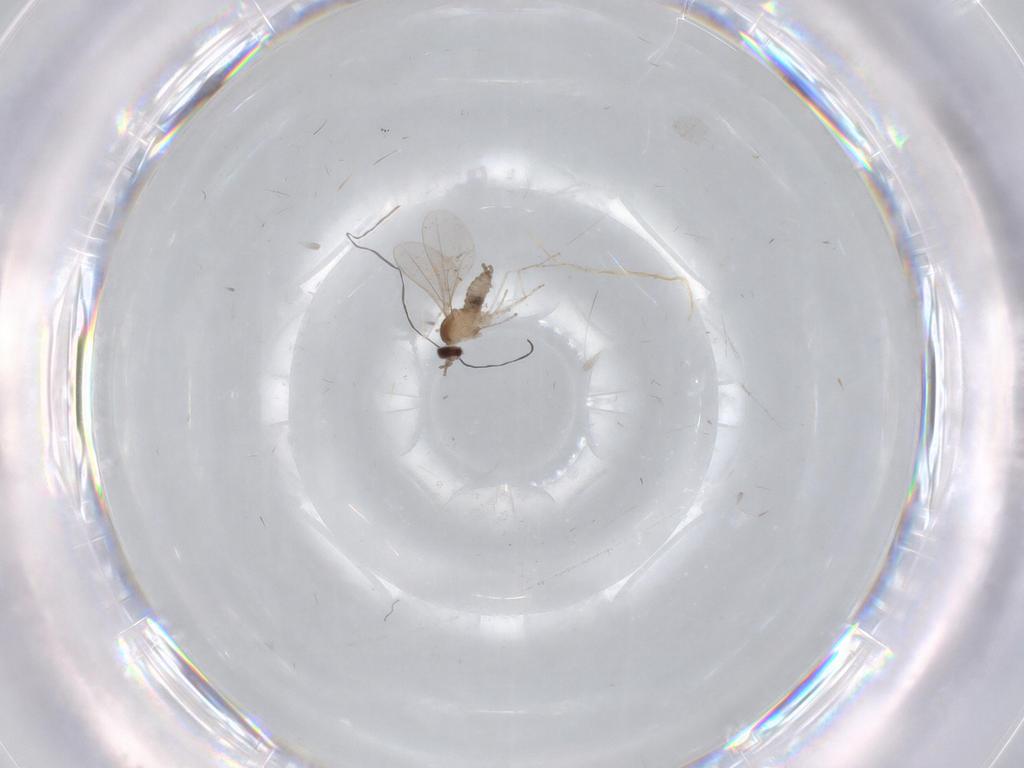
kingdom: Animalia
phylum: Arthropoda
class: Insecta
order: Diptera
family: Cecidomyiidae
